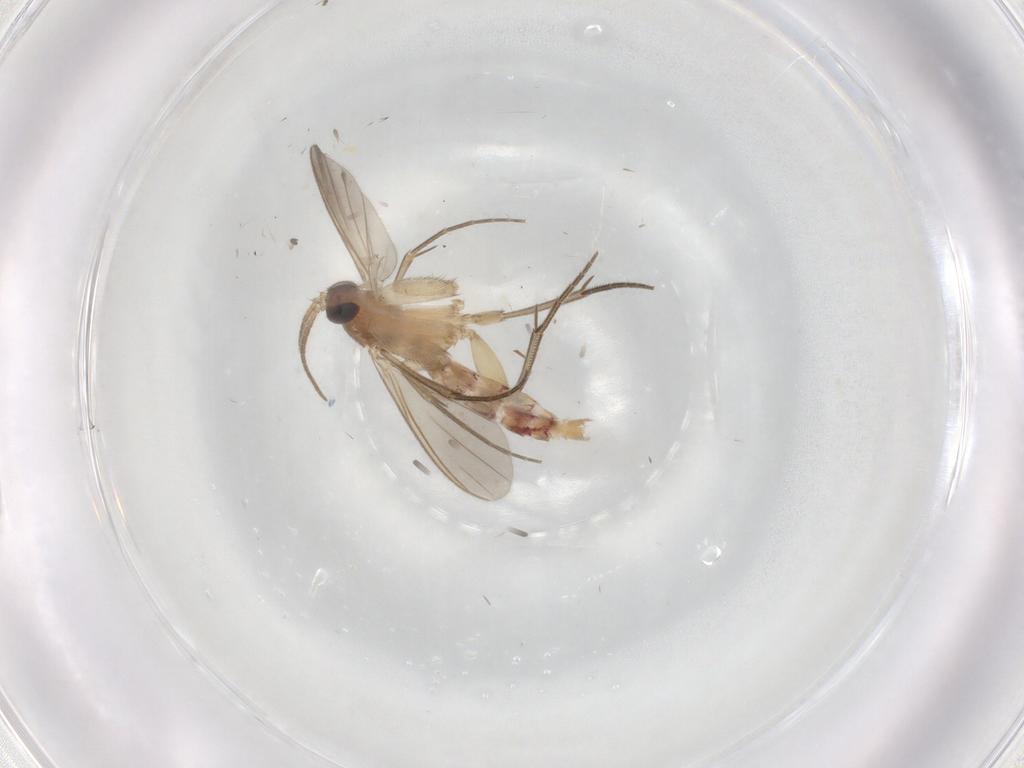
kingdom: Animalia
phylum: Arthropoda
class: Insecta
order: Diptera
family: Cecidomyiidae
